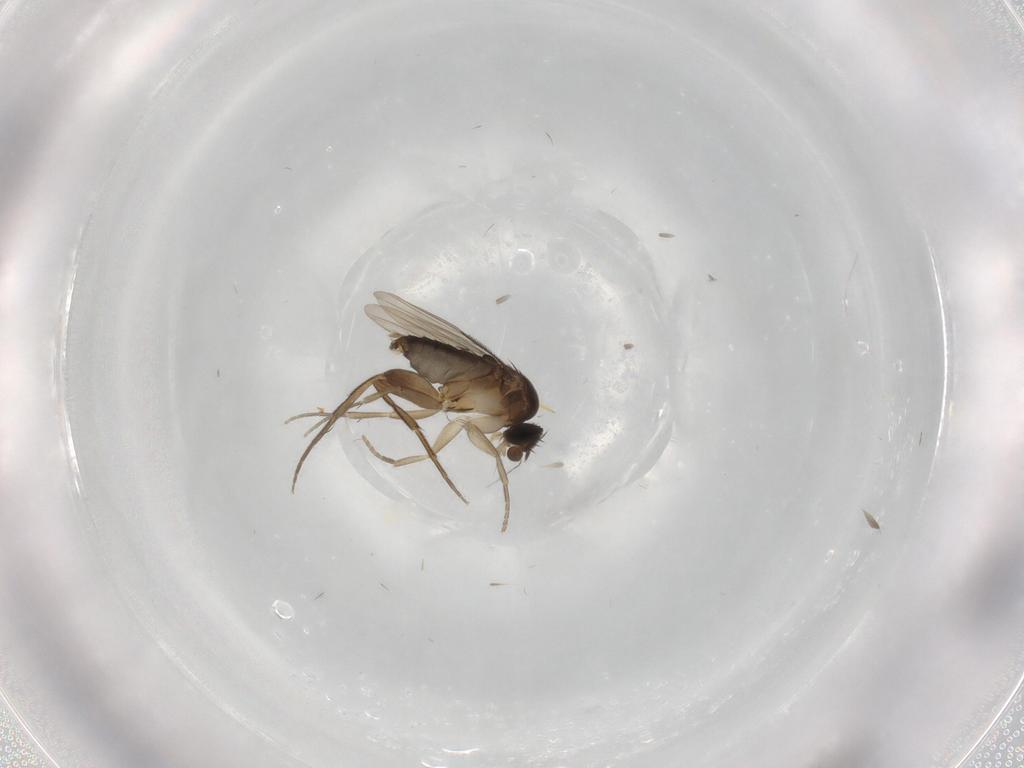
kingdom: Animalia
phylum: Arthropoda
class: Insecta
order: Diptera
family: Phoridae
